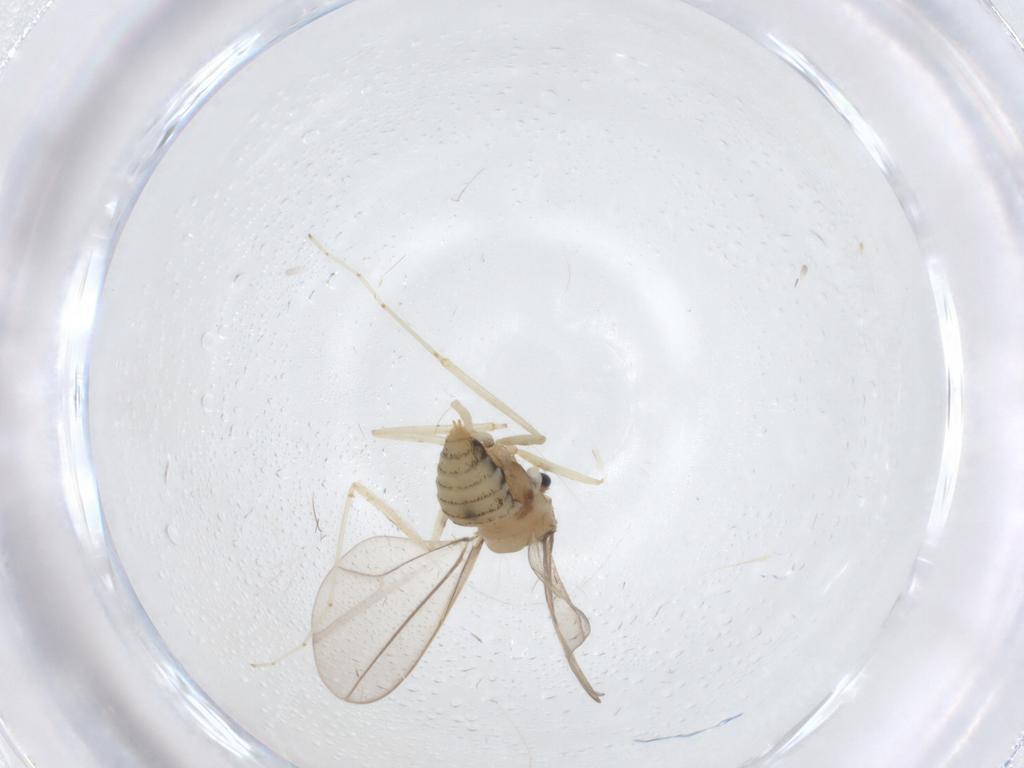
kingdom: Animalia
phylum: Arthropoda
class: Insecta
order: Diptera
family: Cecidomyiidae
